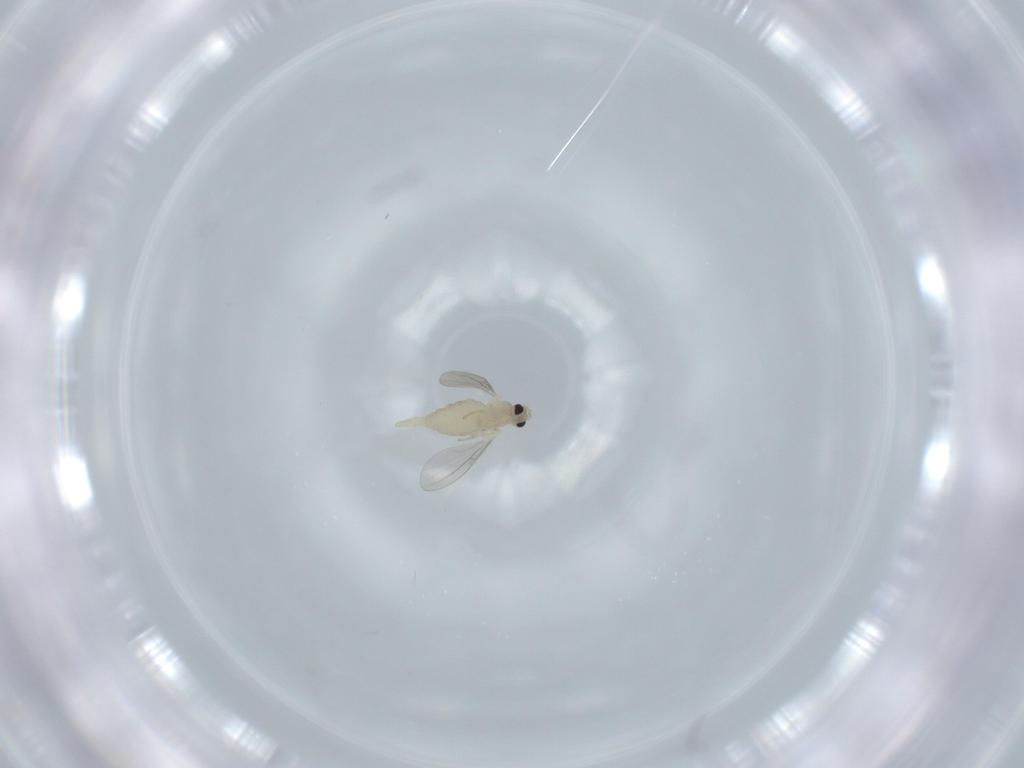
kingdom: Animalia
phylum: Arthropoda
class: Insecta
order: Diptera
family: Cecidomyiidae
